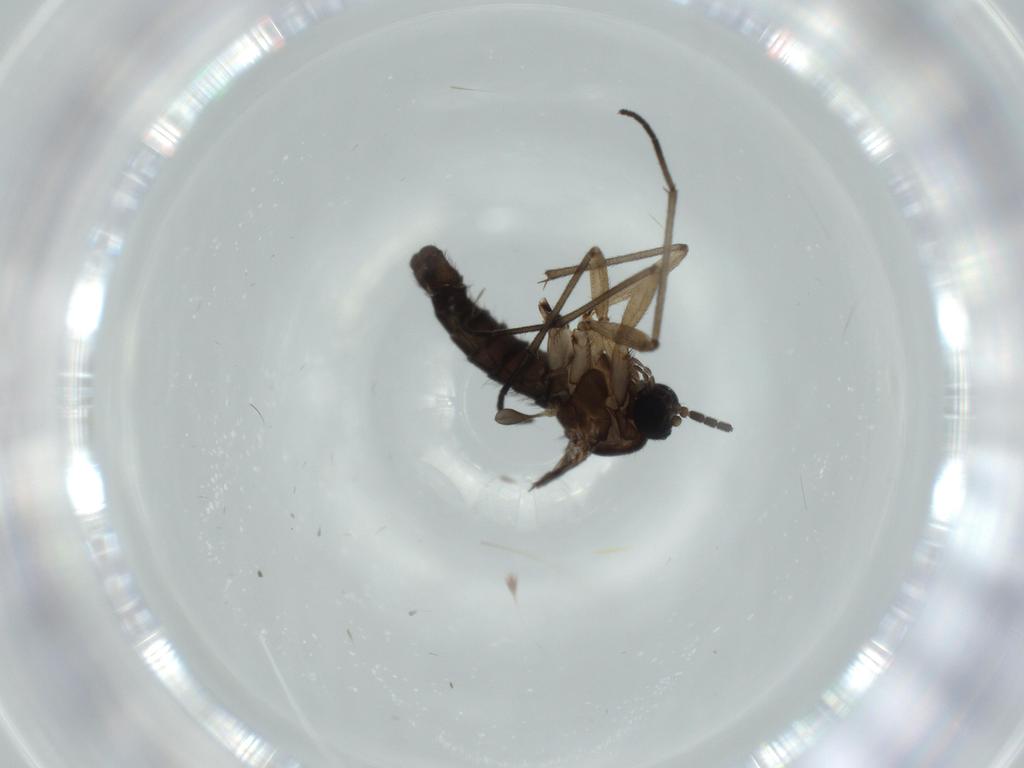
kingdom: Animalia
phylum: Arthropoda
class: Insecta
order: Diptera
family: Sciaridae
